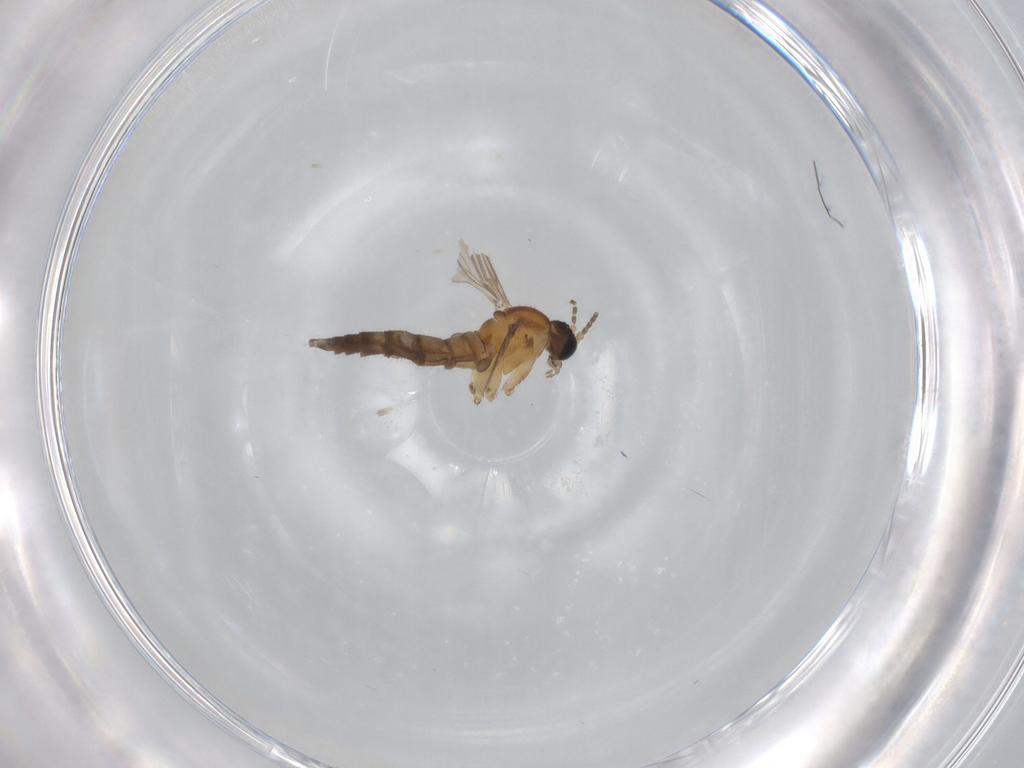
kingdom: Animalia
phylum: Arthropoda
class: Insecta
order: Diptera
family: Sciaridae
